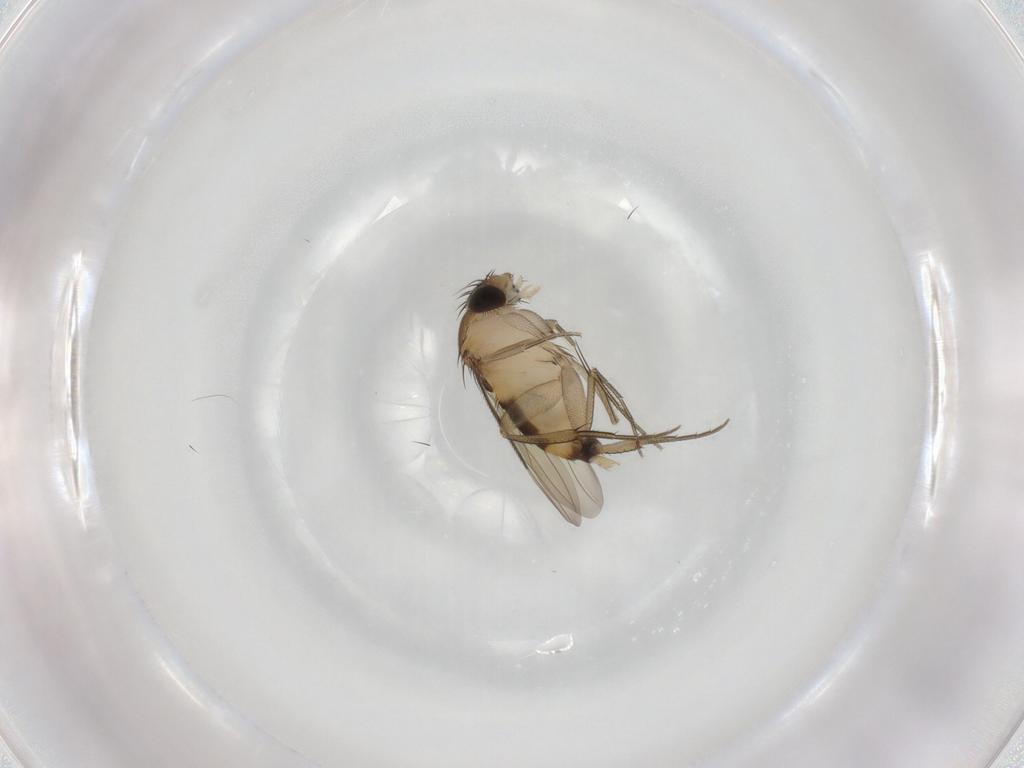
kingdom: Animalia
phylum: Arthropoda
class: Insecta
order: Diptera
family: Phoridae
